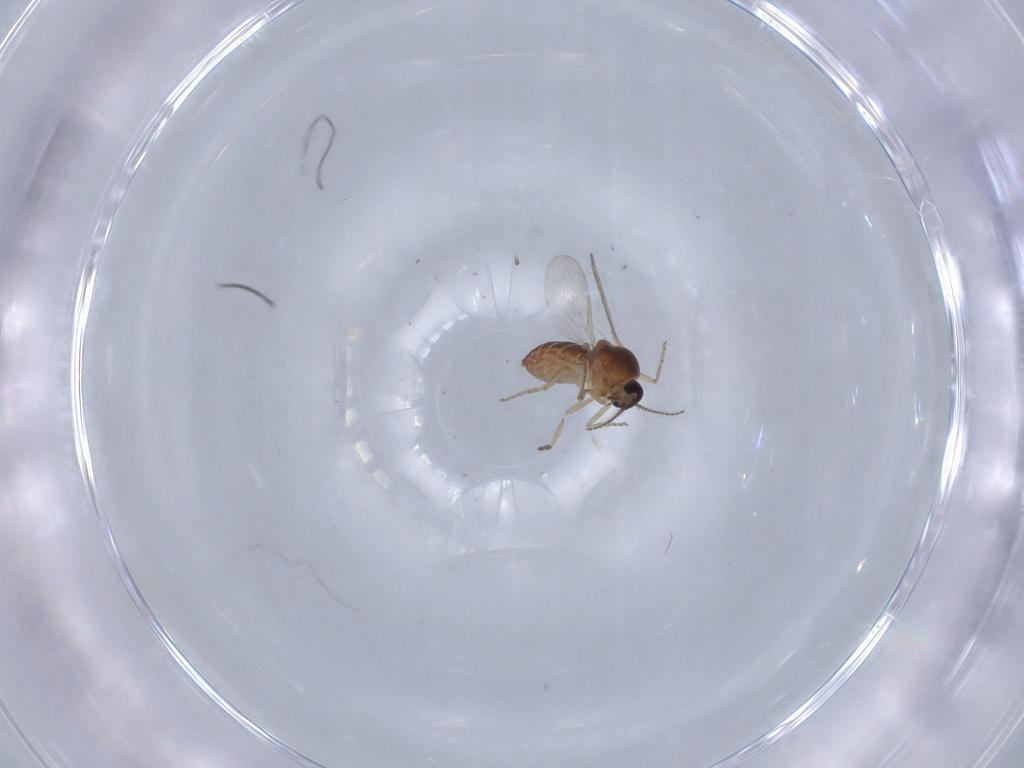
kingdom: Animalia
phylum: Arthropoda
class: Insecta
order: Diptera
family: Ceratopogonidae
